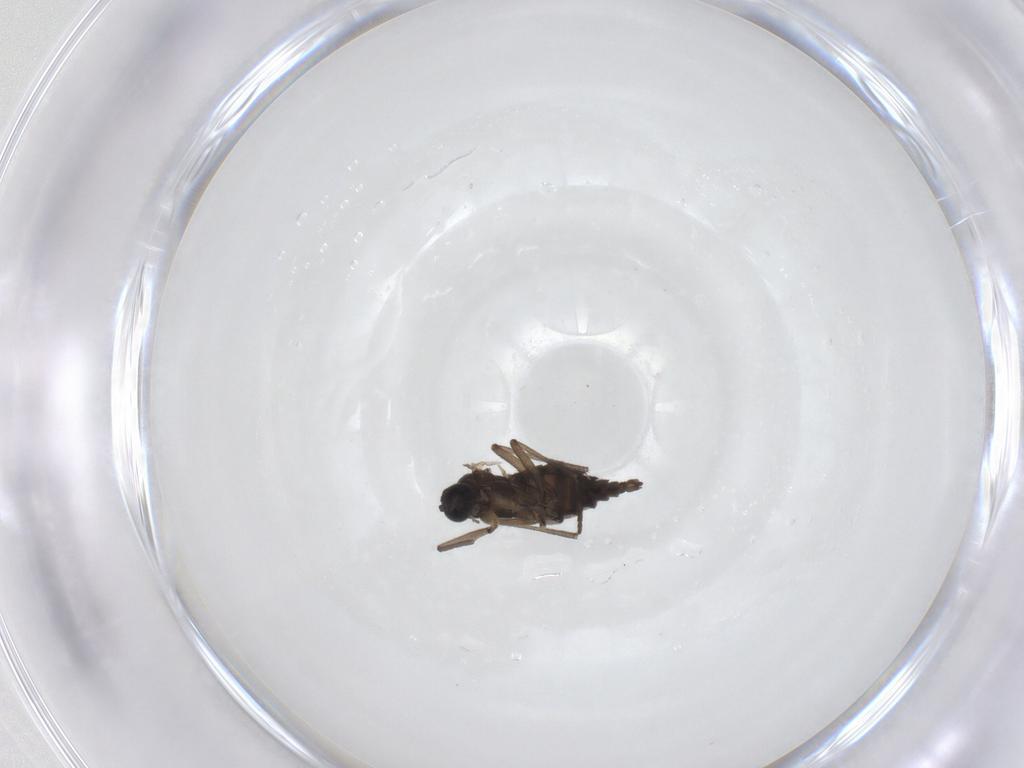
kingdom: Animalia
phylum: Arthropoda
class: Insecta
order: Diptera
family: Sciaridae
